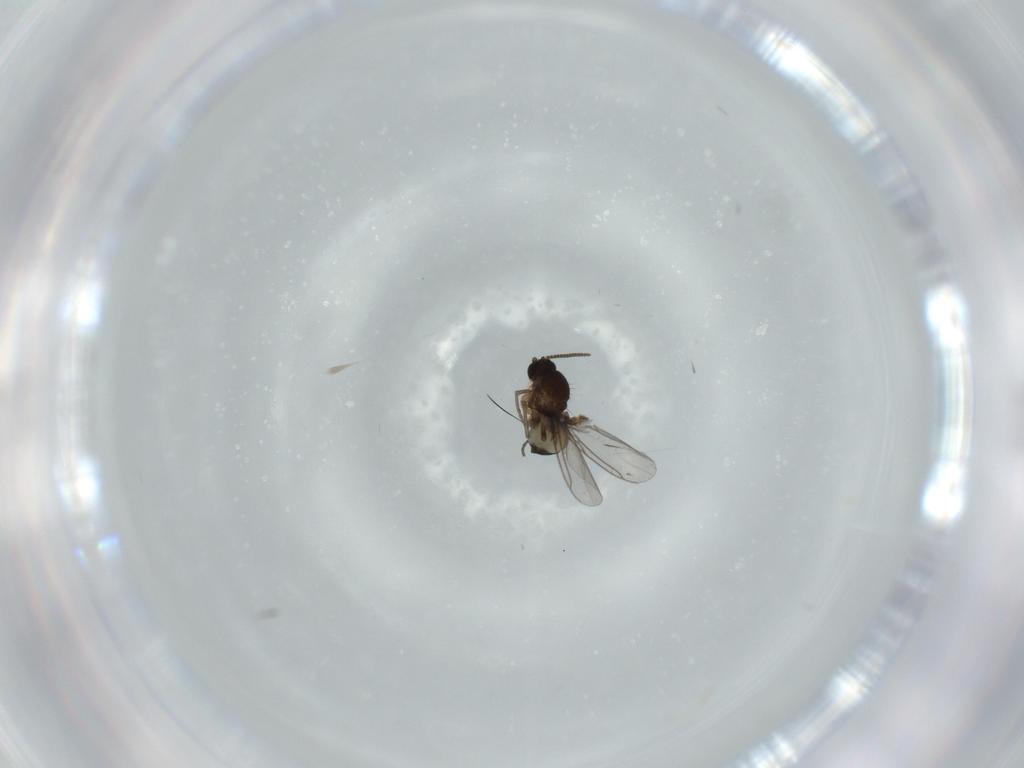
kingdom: Animalia
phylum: Arthropoda
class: Insecta
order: Diptera
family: Sciaridae
